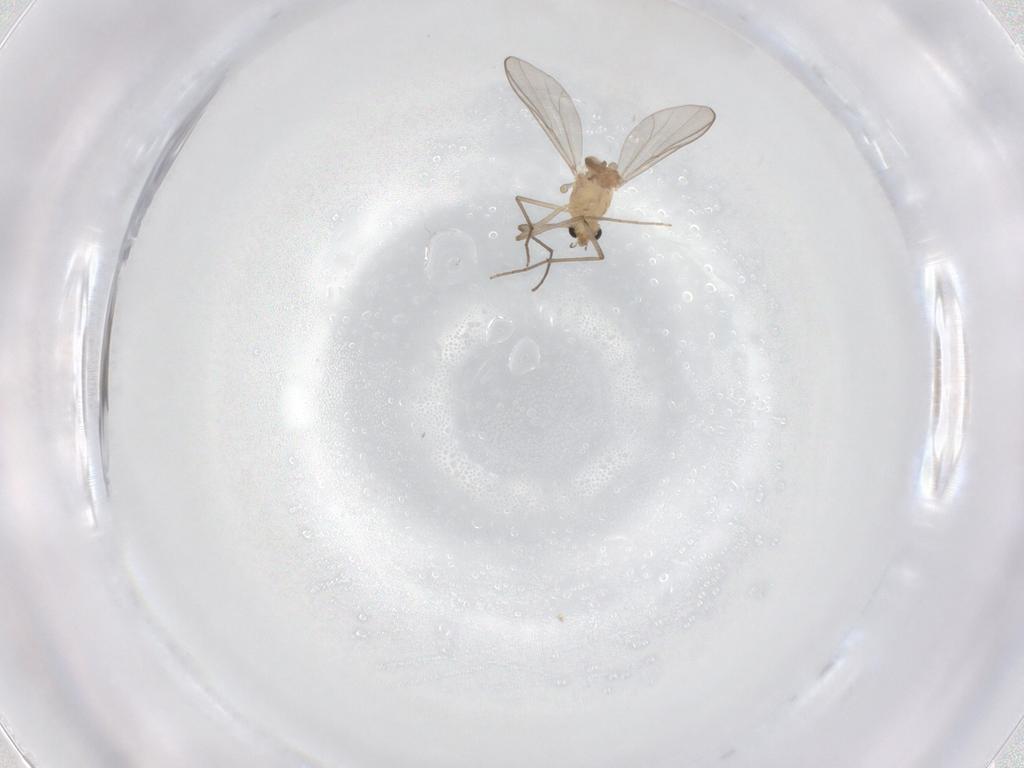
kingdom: Animalia
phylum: Arthropoda
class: Insecta
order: Diptera
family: Chironomidae
